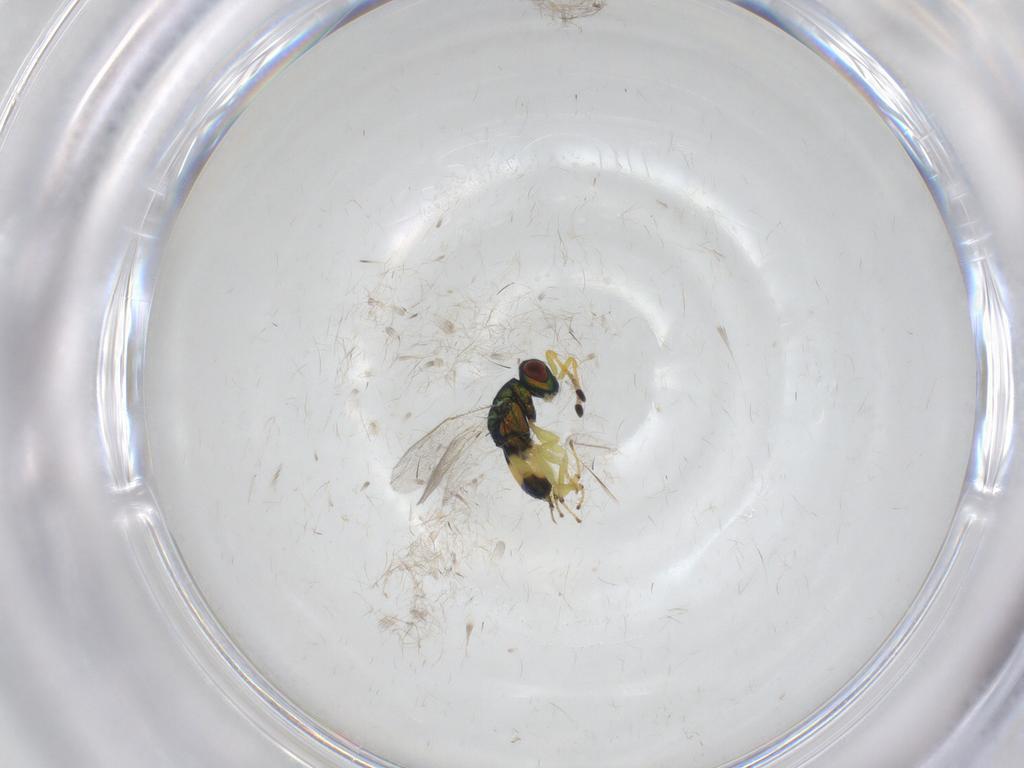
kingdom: Animalia
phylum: Arthropoda
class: Insecta
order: Hymenoptera
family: Pteromalidae
